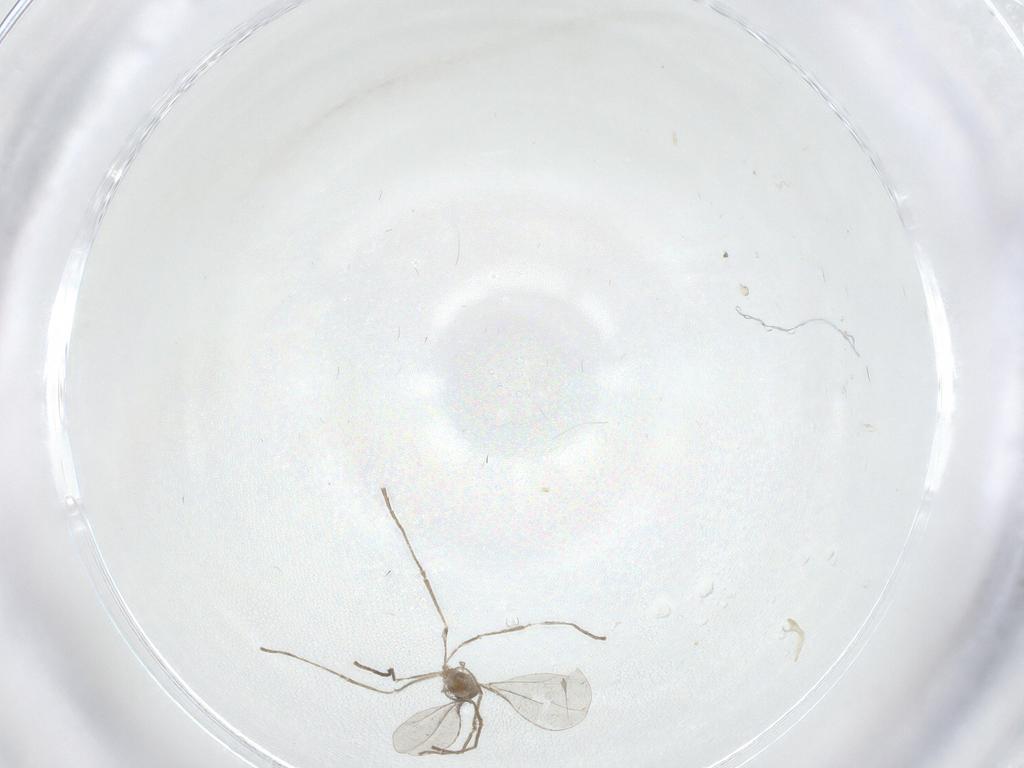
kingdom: Animalia
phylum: Arthropoda
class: Insecta
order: Diptera
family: Cecidomyiidae
